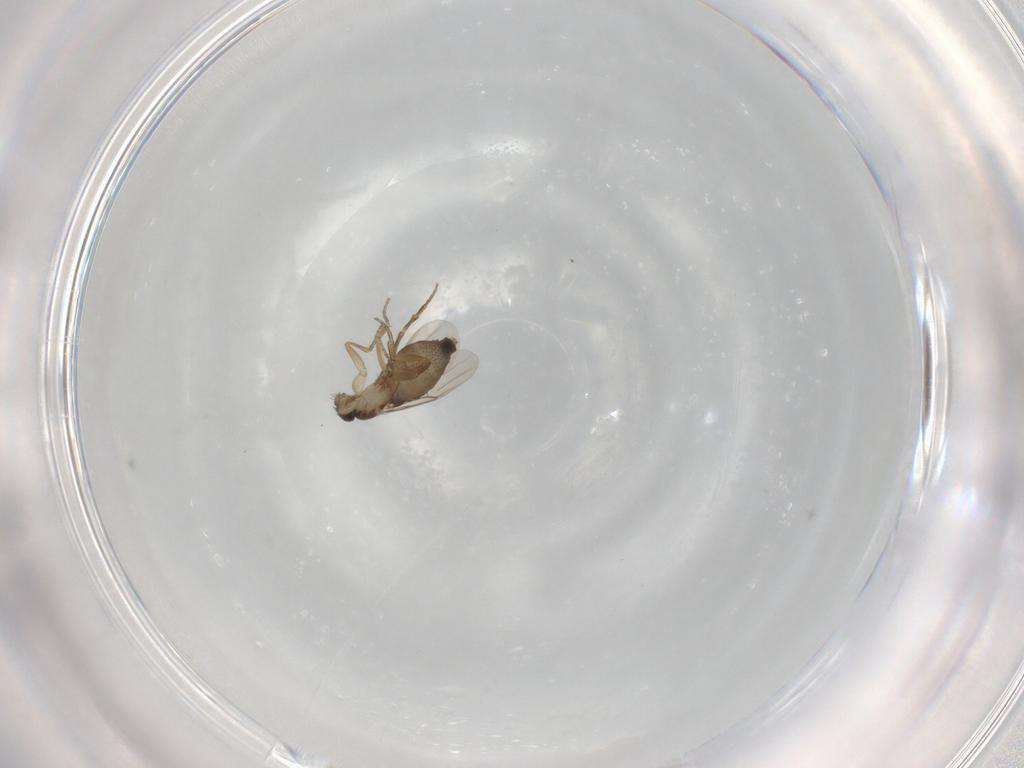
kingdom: Animalia
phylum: Arthropoda
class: Insecta
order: Diptera
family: Phoridae
